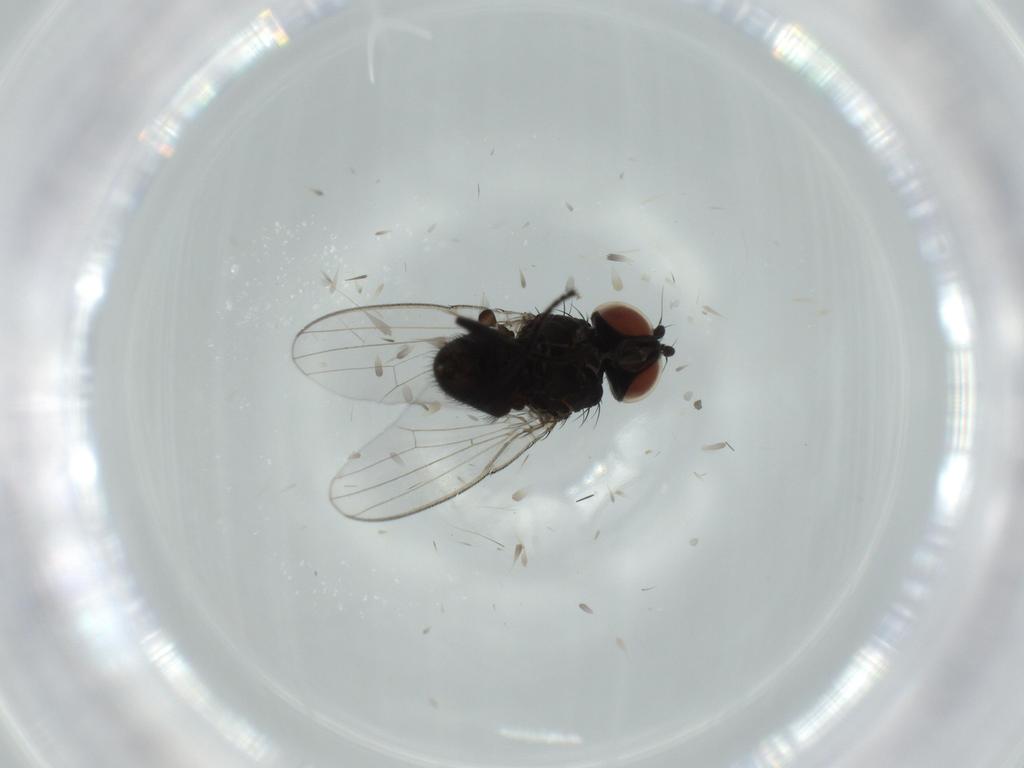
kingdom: Animalia
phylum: Arthropoda
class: Insecta
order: Diptera
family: Milichiidae
